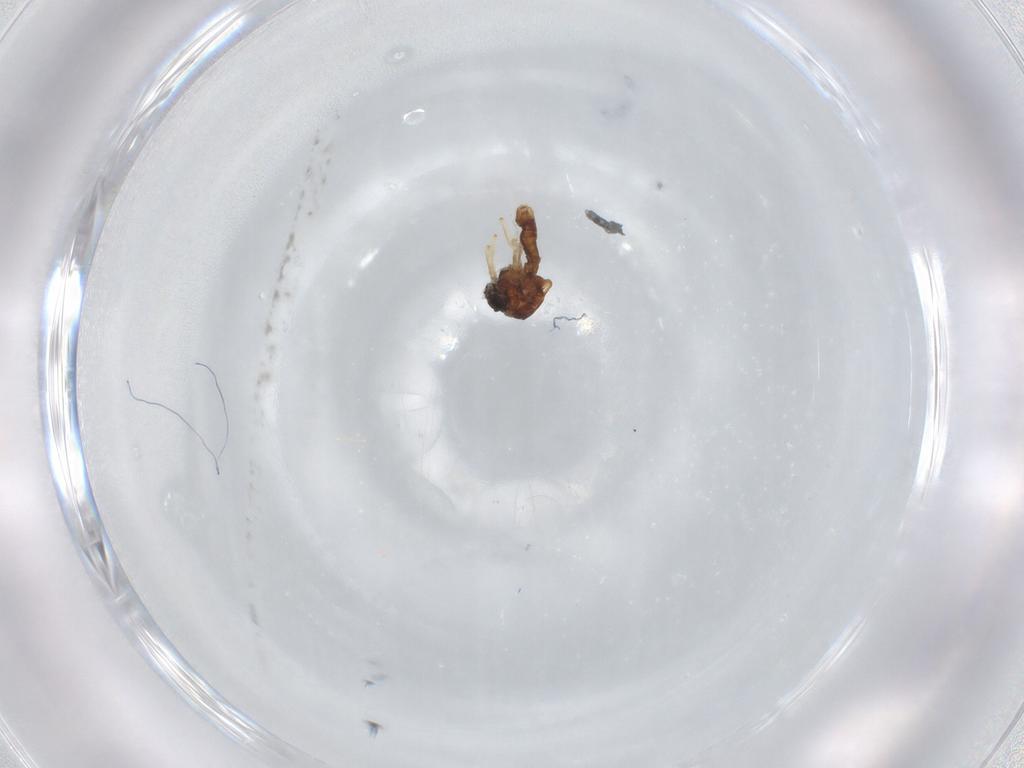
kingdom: Animalia
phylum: Arthropoda
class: Insecta
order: Diptera
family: Ceratopogonidae
